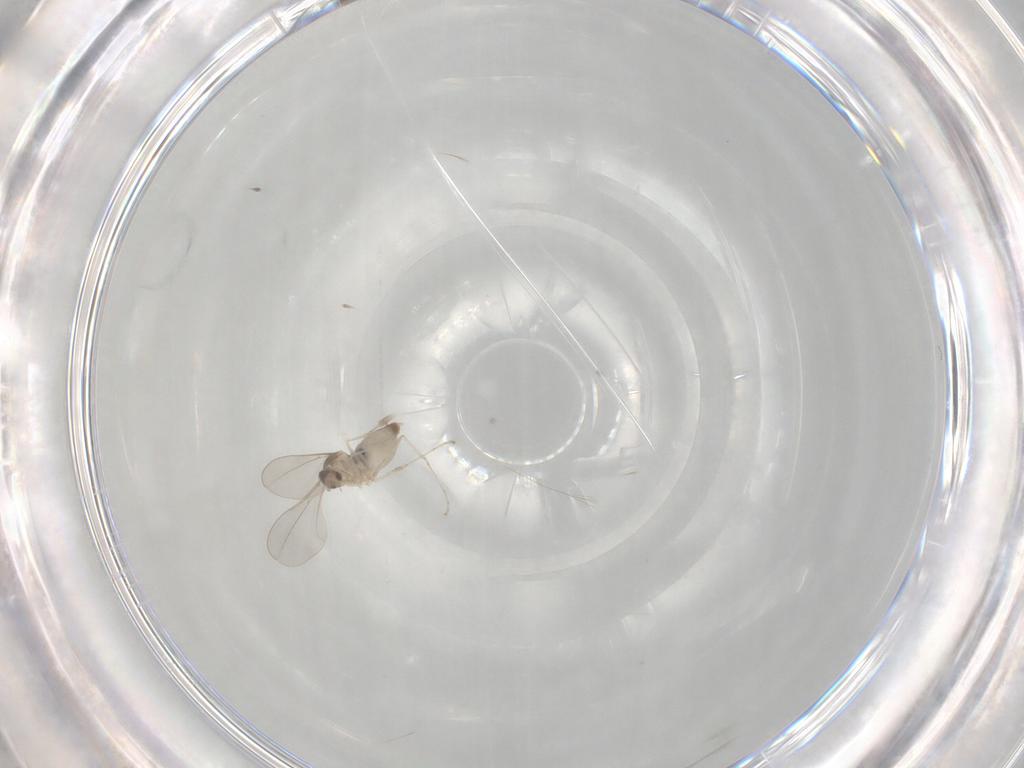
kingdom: Animalia
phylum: Arthropoda
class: Insecta
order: Diptera
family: Cecidomyiidae
